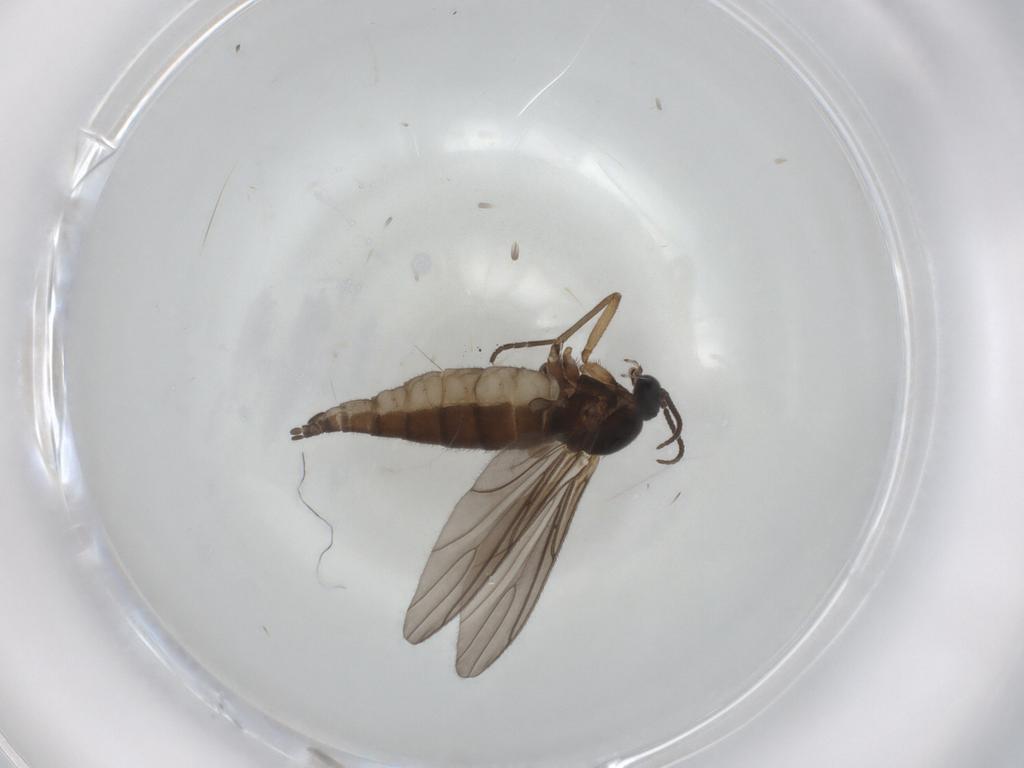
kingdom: Animalia
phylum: Arthropoda
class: Insecta
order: Diptera
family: Sciaridae
